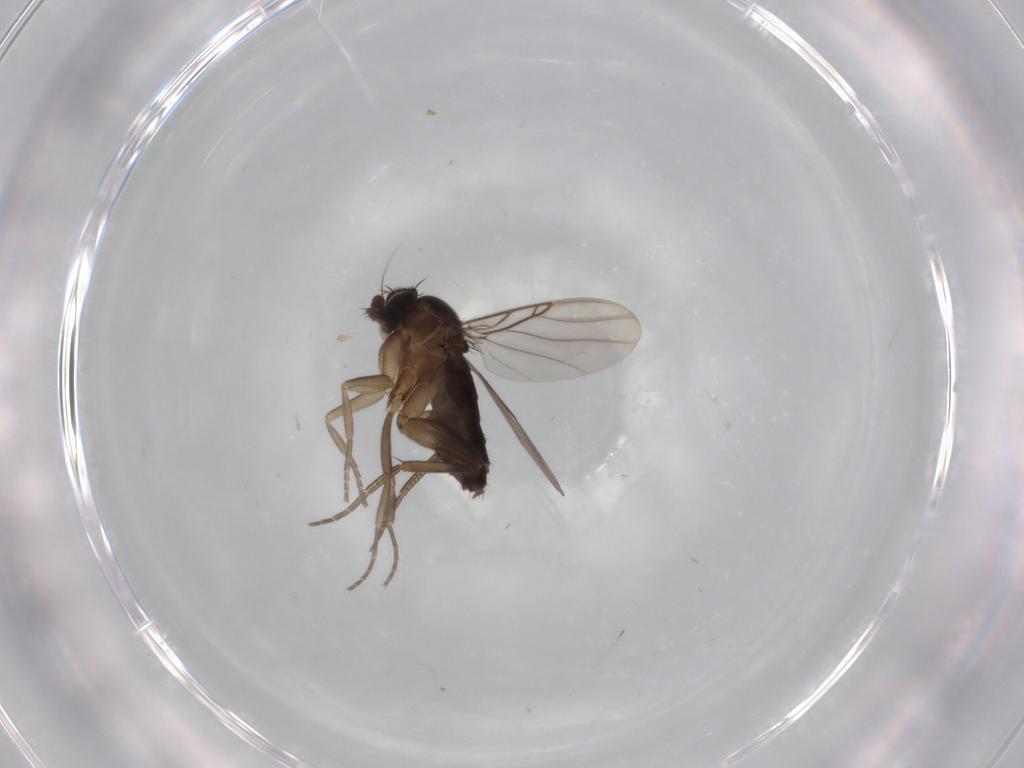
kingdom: Animalia
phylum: Arthropoda
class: Insecta
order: Diptera
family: Phoridae
